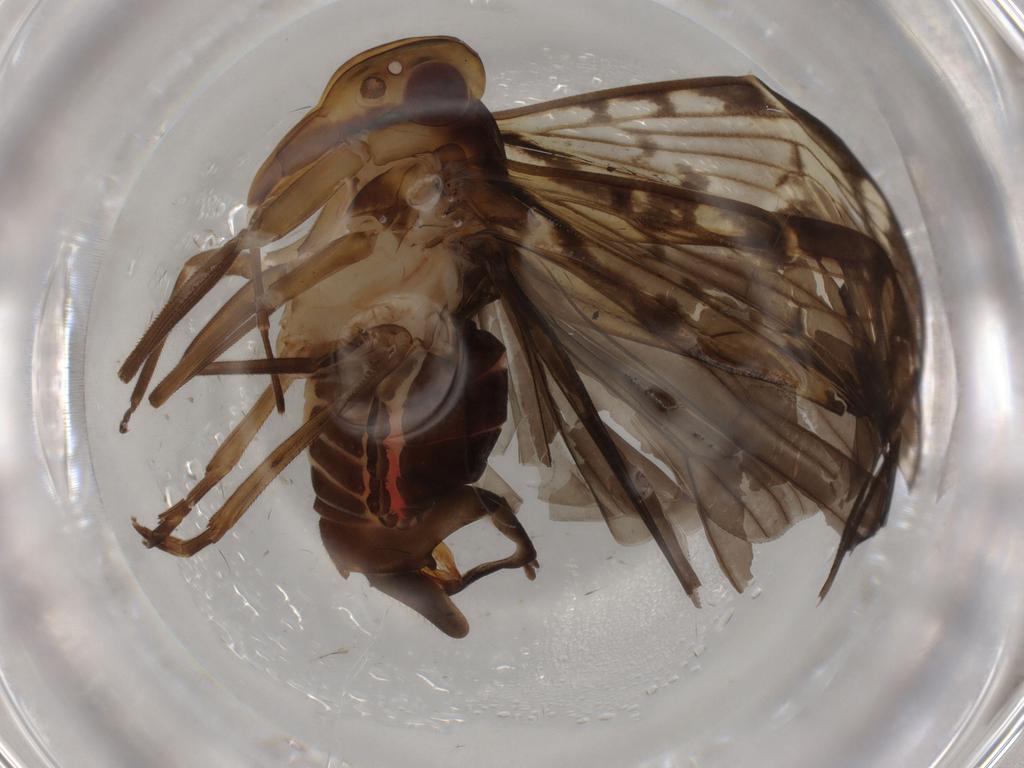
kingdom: Animalia
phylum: Arthropoda
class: Insecta
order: Hemiptera
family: Cixiidae
